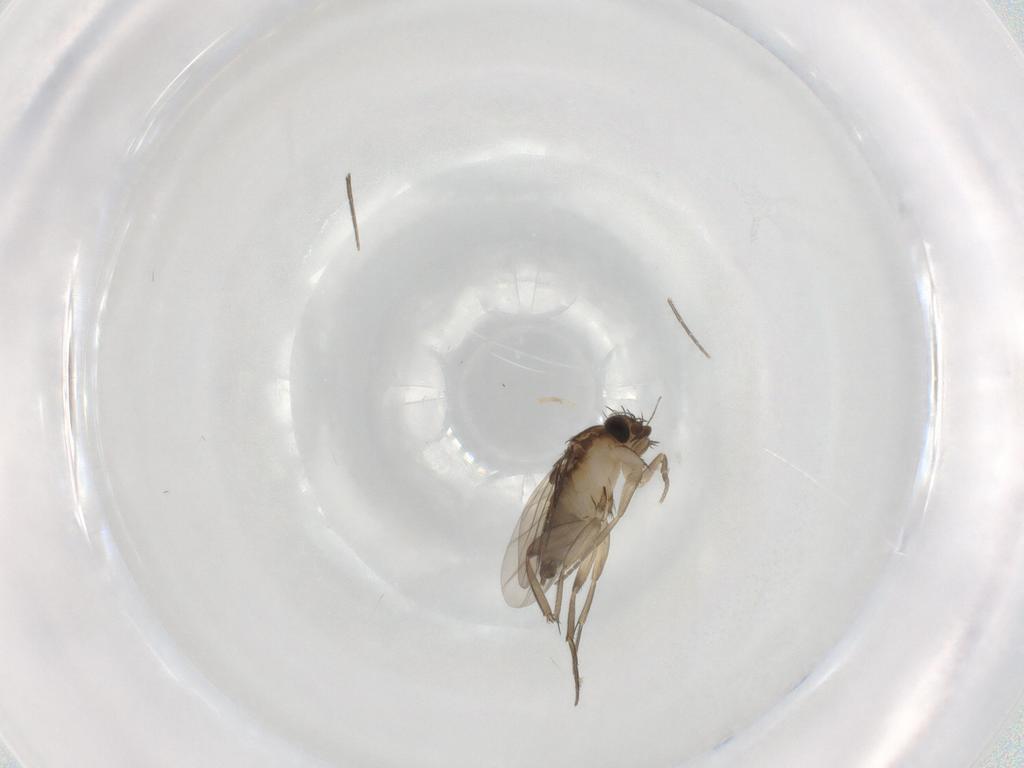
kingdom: Animalia
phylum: Arthropoda
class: Insecta
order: Diptera
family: Phoridae
